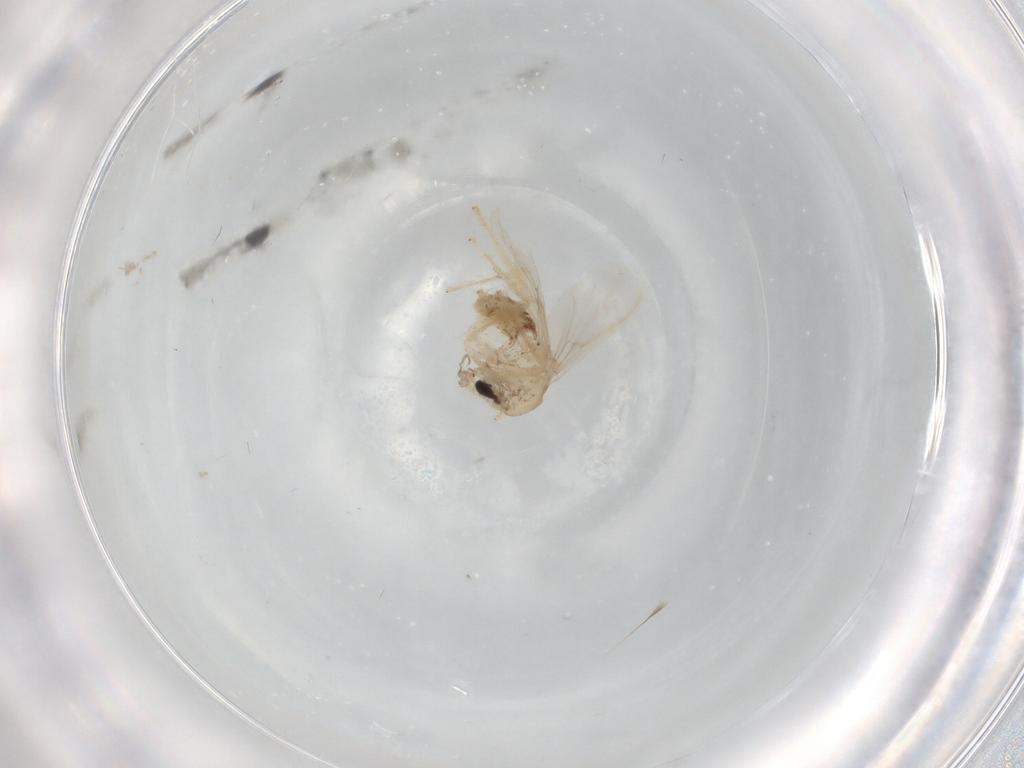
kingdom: Animalia
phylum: Arthropoda
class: Insecta
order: Diptera
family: Chironomidae
